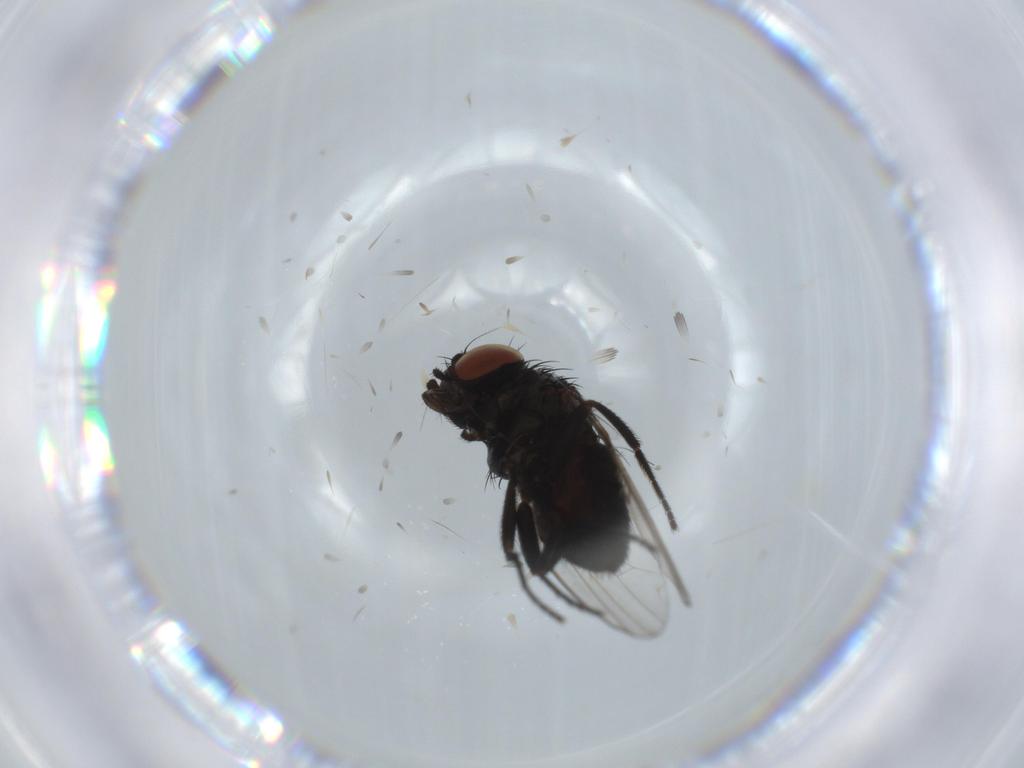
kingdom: Animalia
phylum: Arthropoda
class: Insecta
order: Diptera
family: Milichiidae
